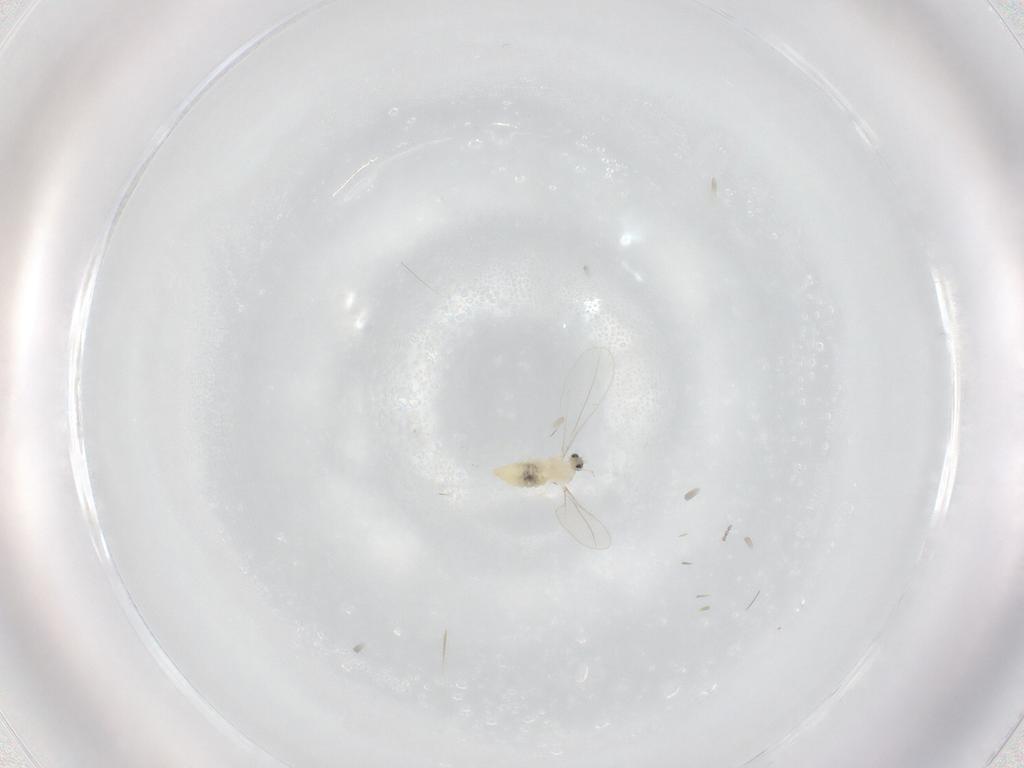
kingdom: Animalia
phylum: Arthropoda
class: Insecta
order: Diptera
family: Cecidomyiidae
